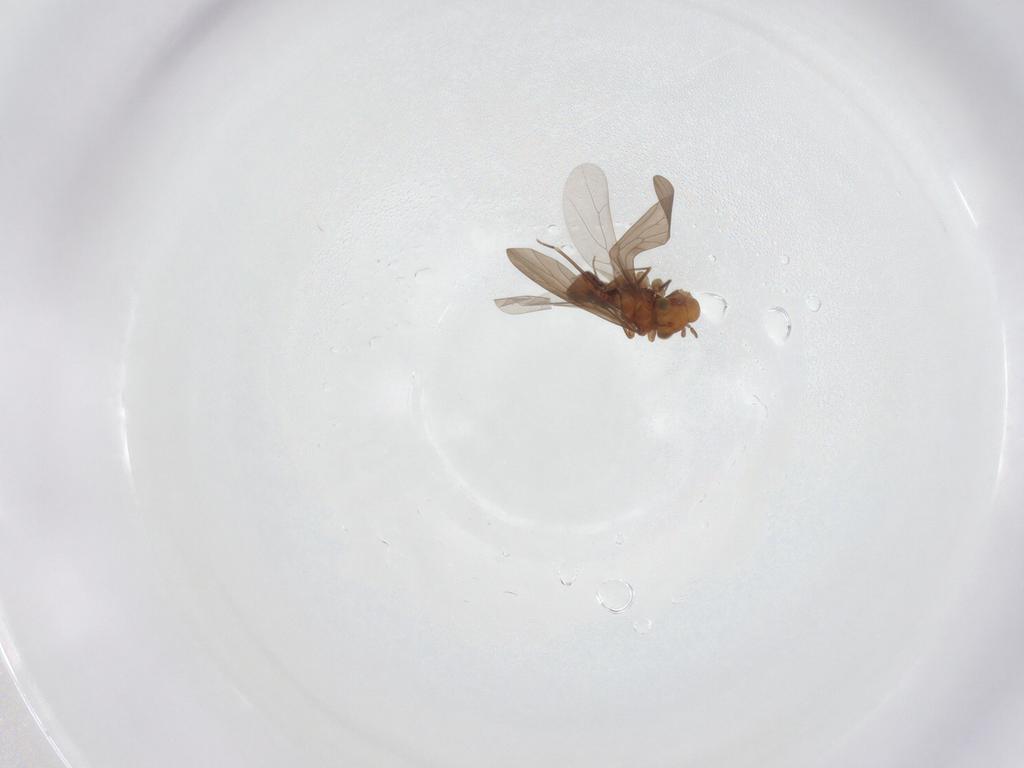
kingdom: Animalia
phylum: Arthropoda
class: Insecta
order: Psocodea
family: Lepidopsocidae
